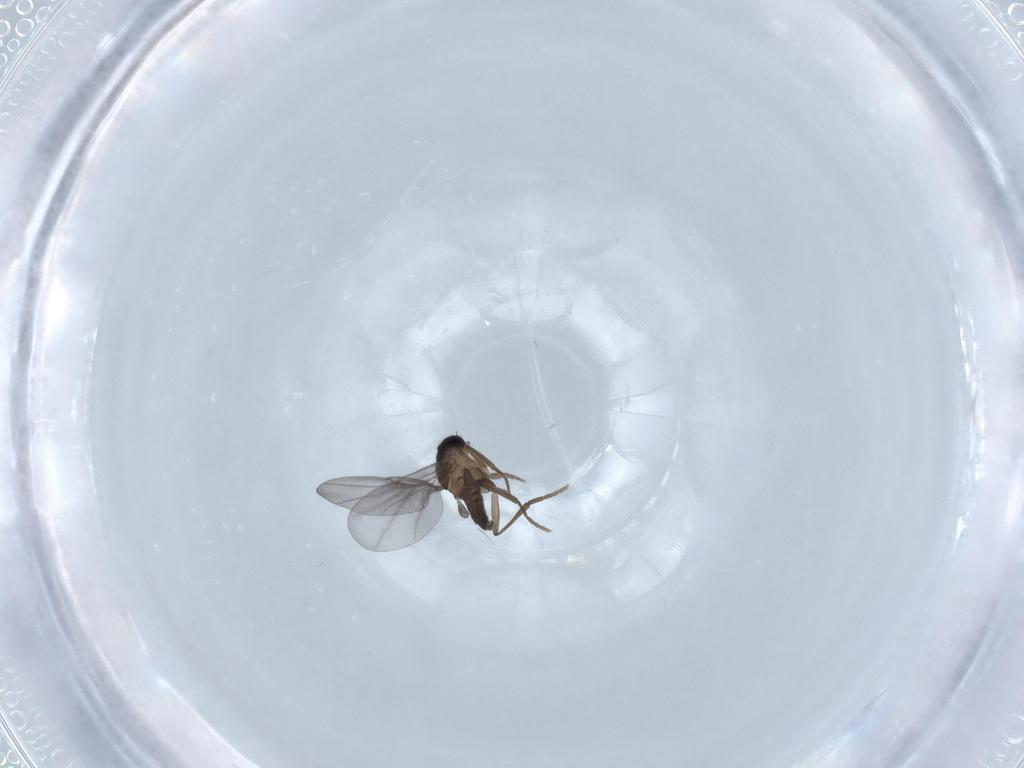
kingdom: Animalia
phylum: Arthropoda
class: Insecta
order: Diptera
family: Phoridae
